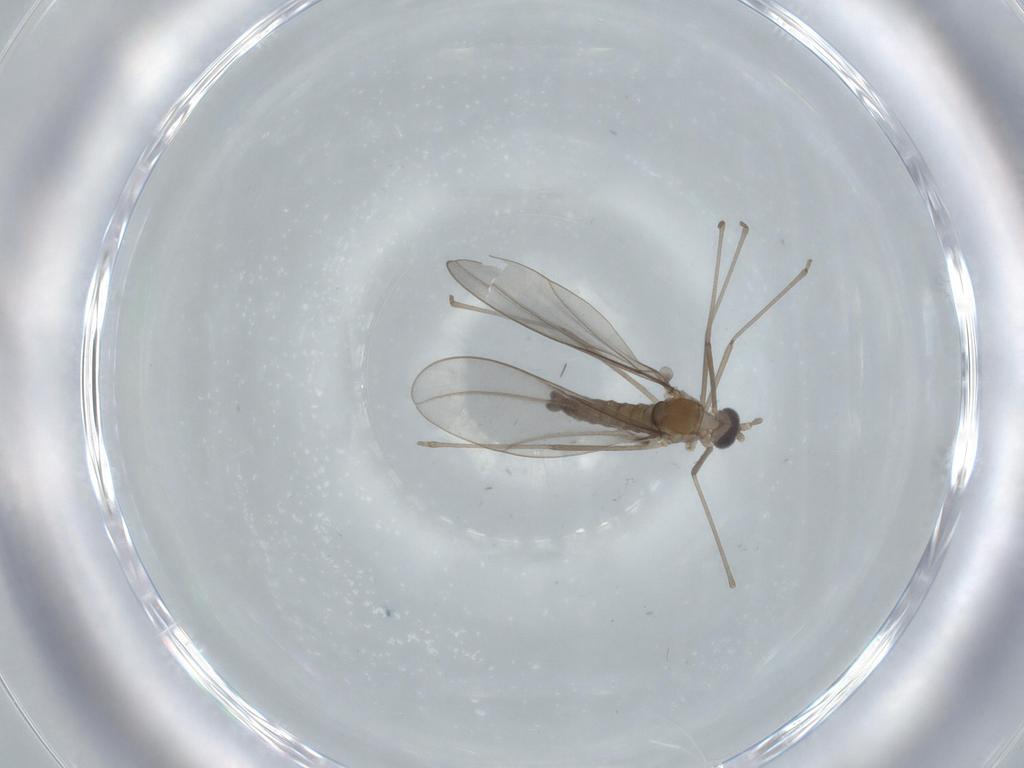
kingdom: Animalia
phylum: Arthropoda
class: Insecta
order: Diptera
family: Cecidomyiidae
